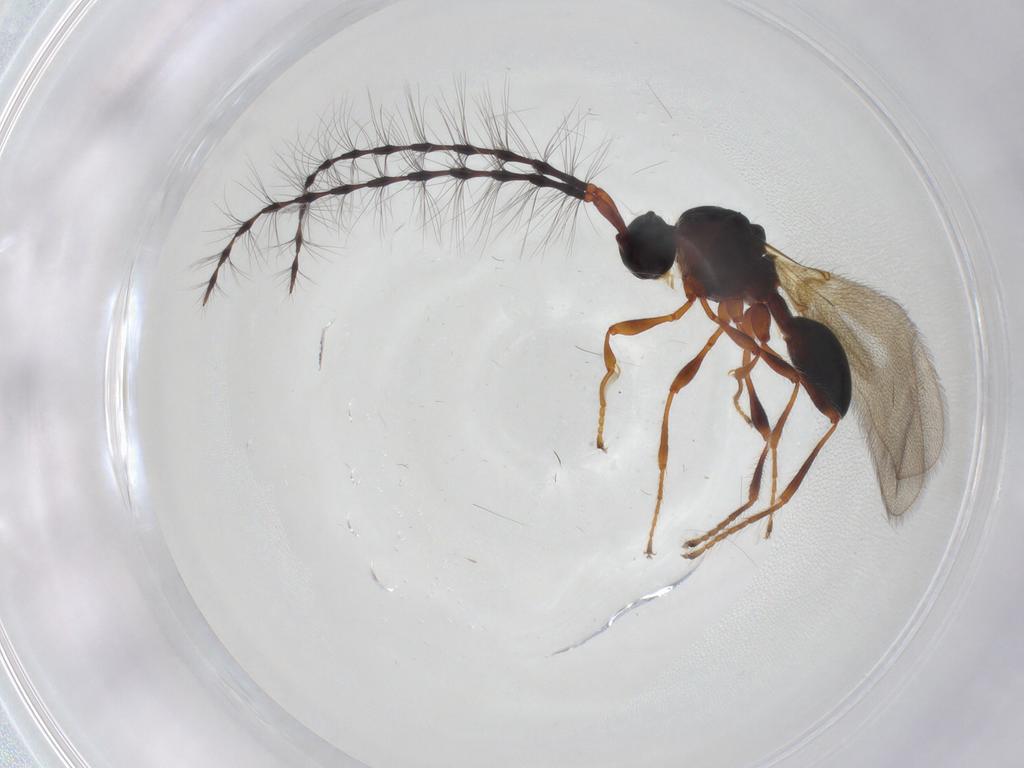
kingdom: Animalia
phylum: Arthropoda
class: Insecta
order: Hymenoptera
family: Diapriidae
